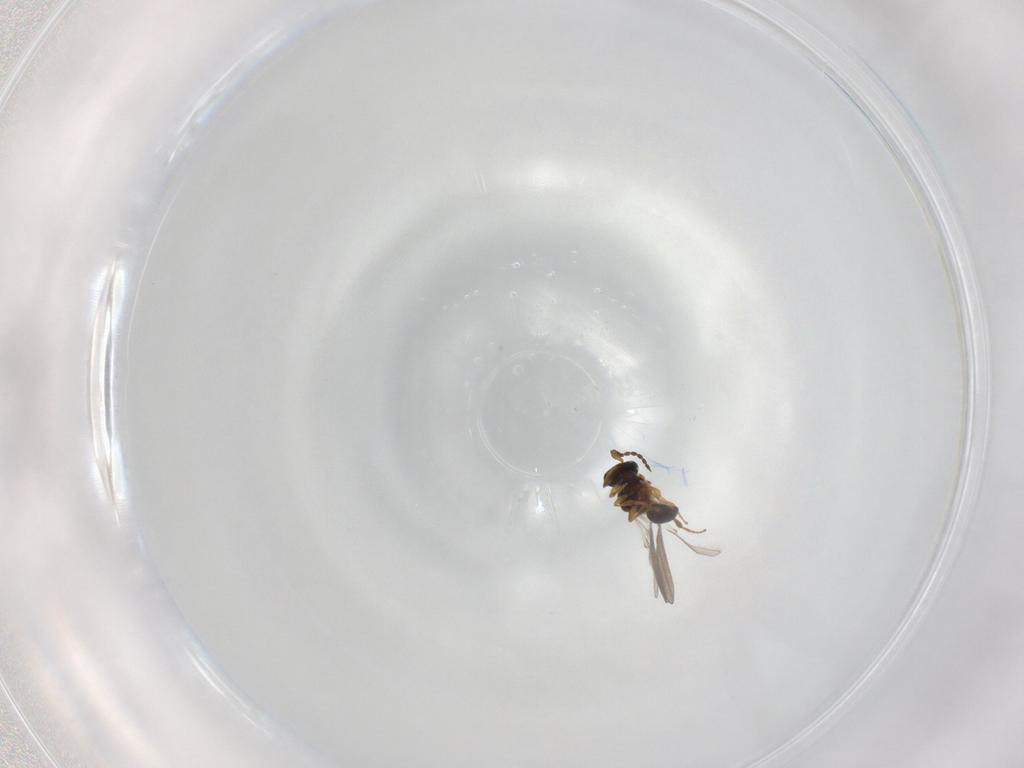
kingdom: Animalia
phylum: Arthropoda
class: Insecta
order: Hymenoptera
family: Platygastridae
